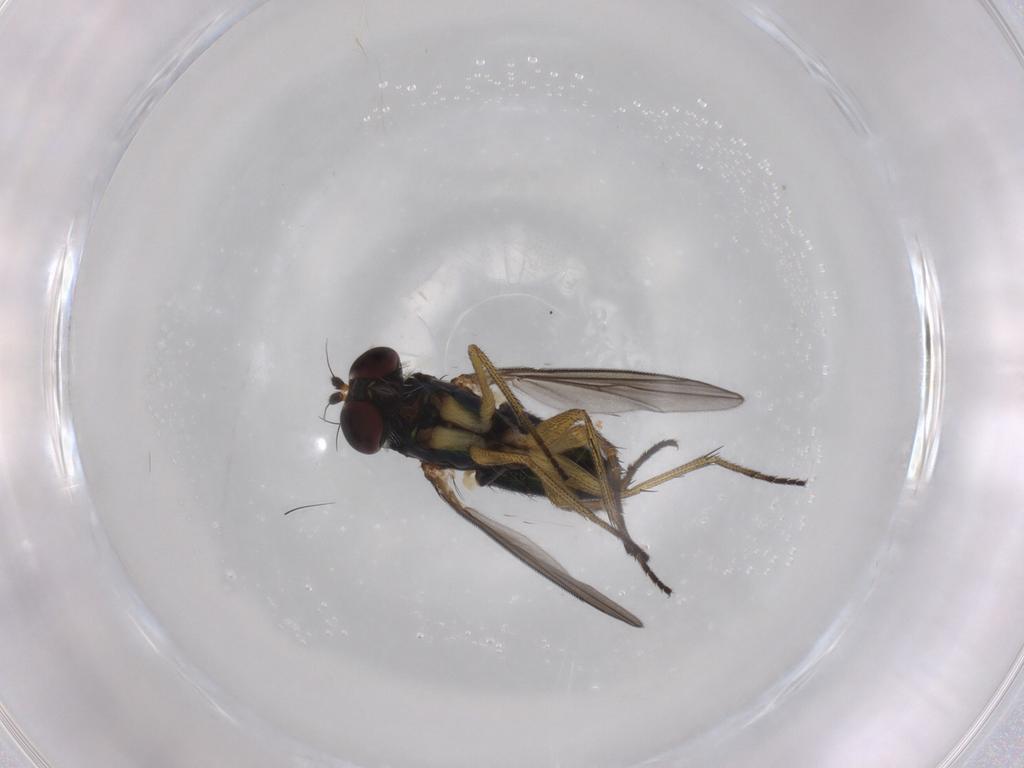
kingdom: Animalia
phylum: Arthropoda
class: Insecta
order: Diptera
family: Dolichopodidae
